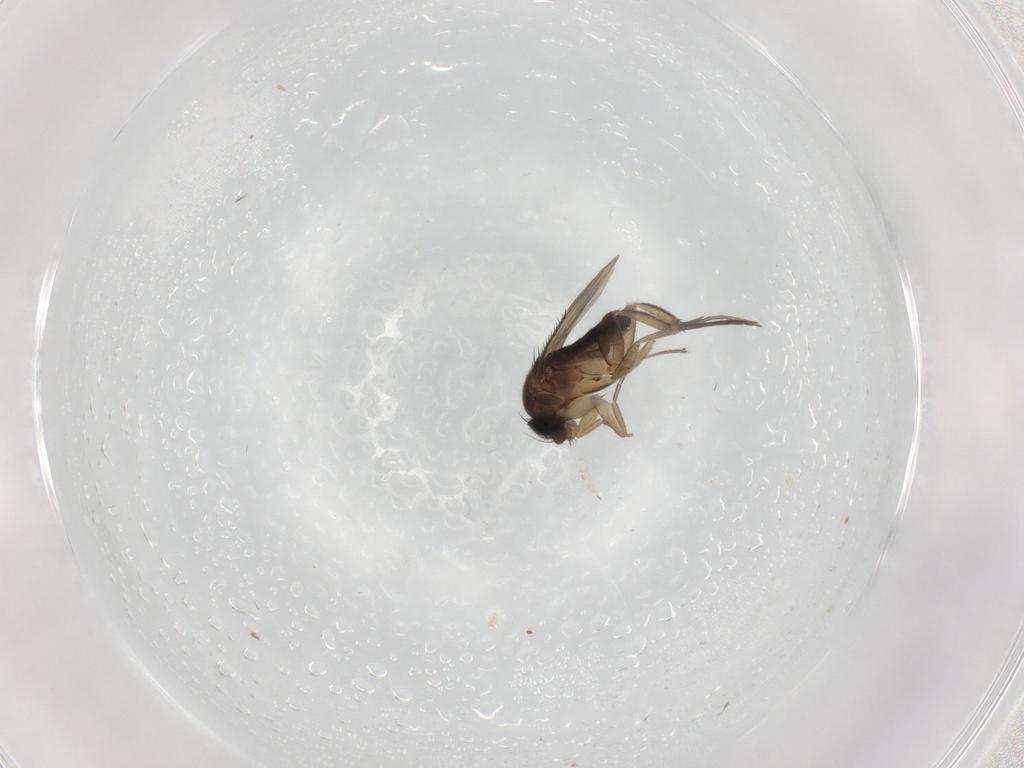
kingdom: Animalia
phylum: Arthropoda
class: Insecta
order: Diptera
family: Phoridae
